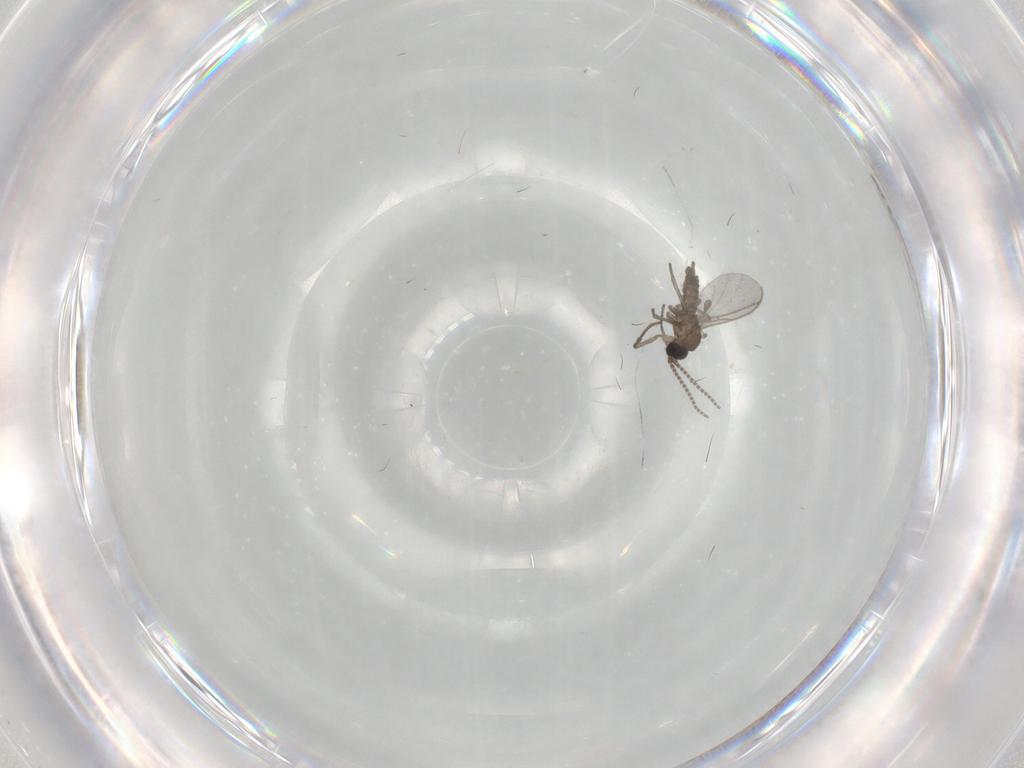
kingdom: Animalia
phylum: Arthropoda
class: Insecta
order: Diptera
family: Sciaridae
